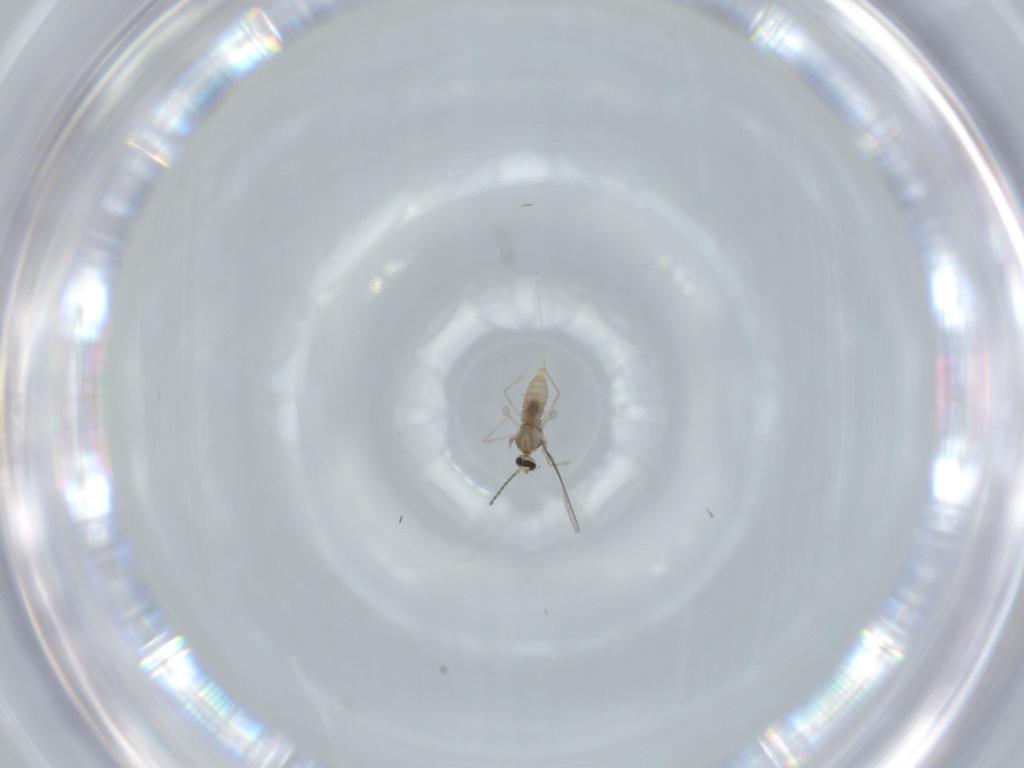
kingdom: Animalia
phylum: Arthropoda
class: Insecta
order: Diptera
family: Cecidomyiidae
